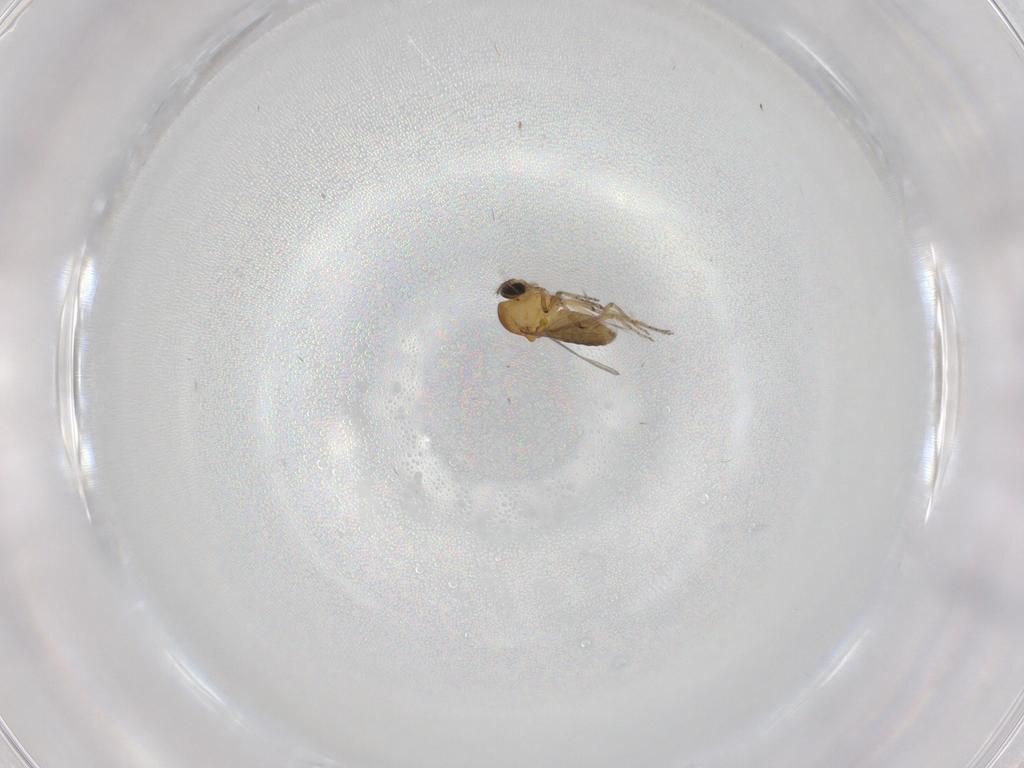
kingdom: Animalia
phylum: Arthropoda
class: Insecta
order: Diptera
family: Ceratopogonidae
